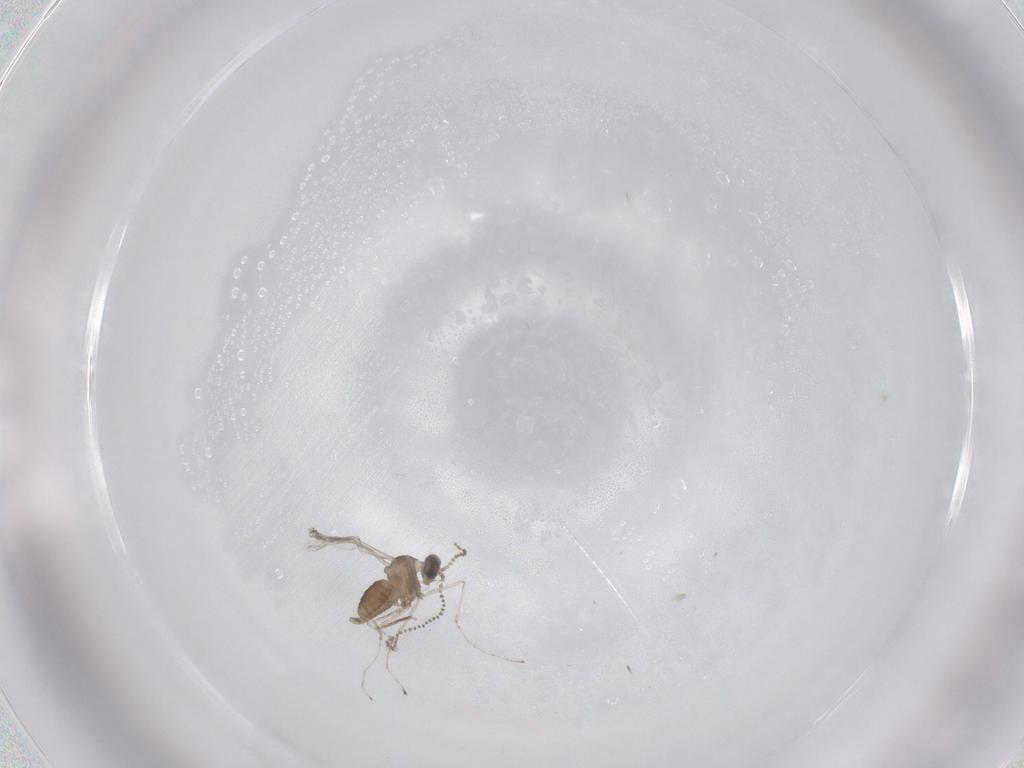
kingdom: Animalia
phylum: Arthropoda
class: Insecta
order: Diptera
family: Cecidomyiidae
